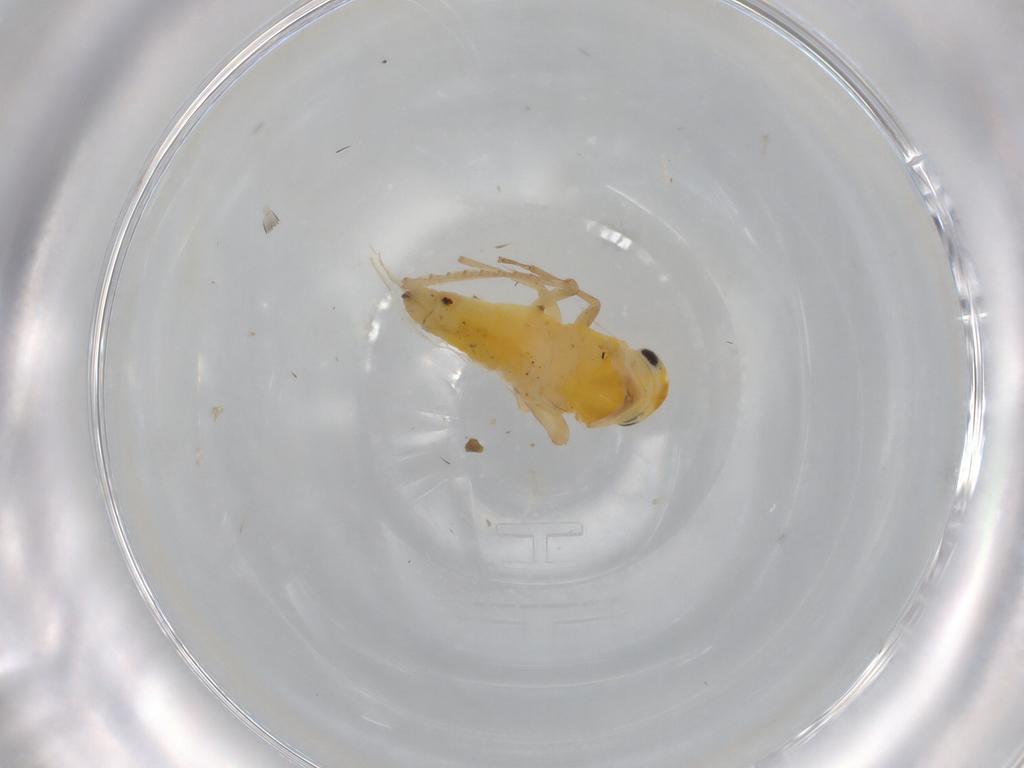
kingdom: Animalia
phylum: Arthropoda
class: Insecta
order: Hemiptera
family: Cicadellidae
